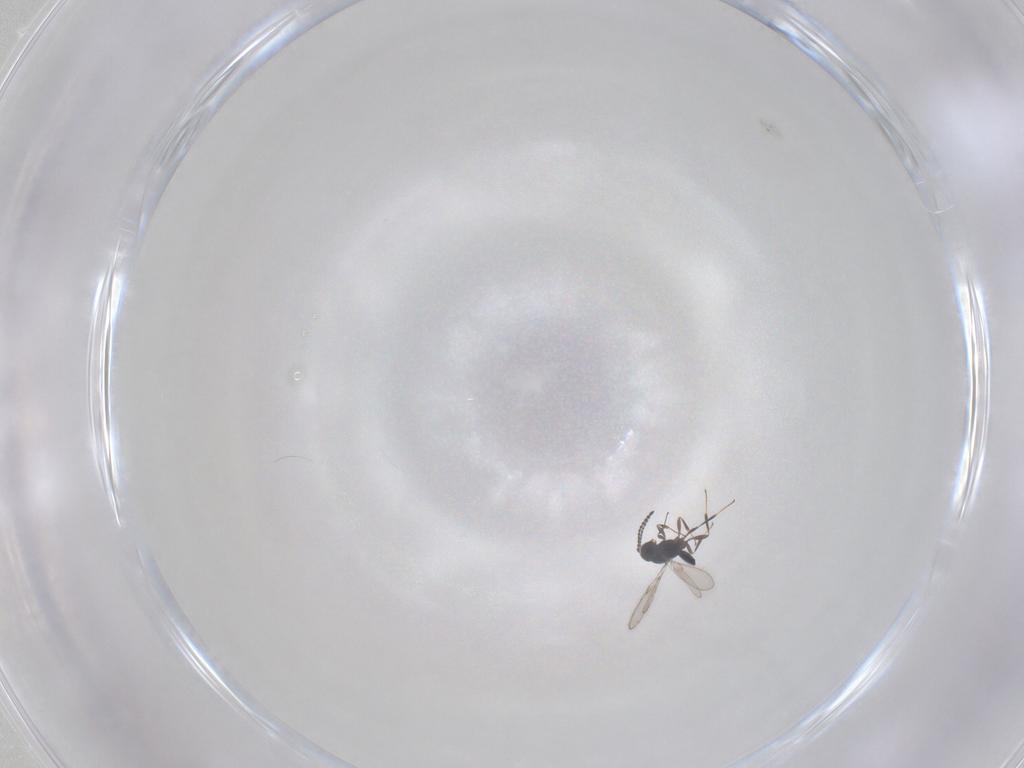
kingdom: Animalia
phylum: Arthropoda
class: Insecta
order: Hymenoptera
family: Scelionidae
